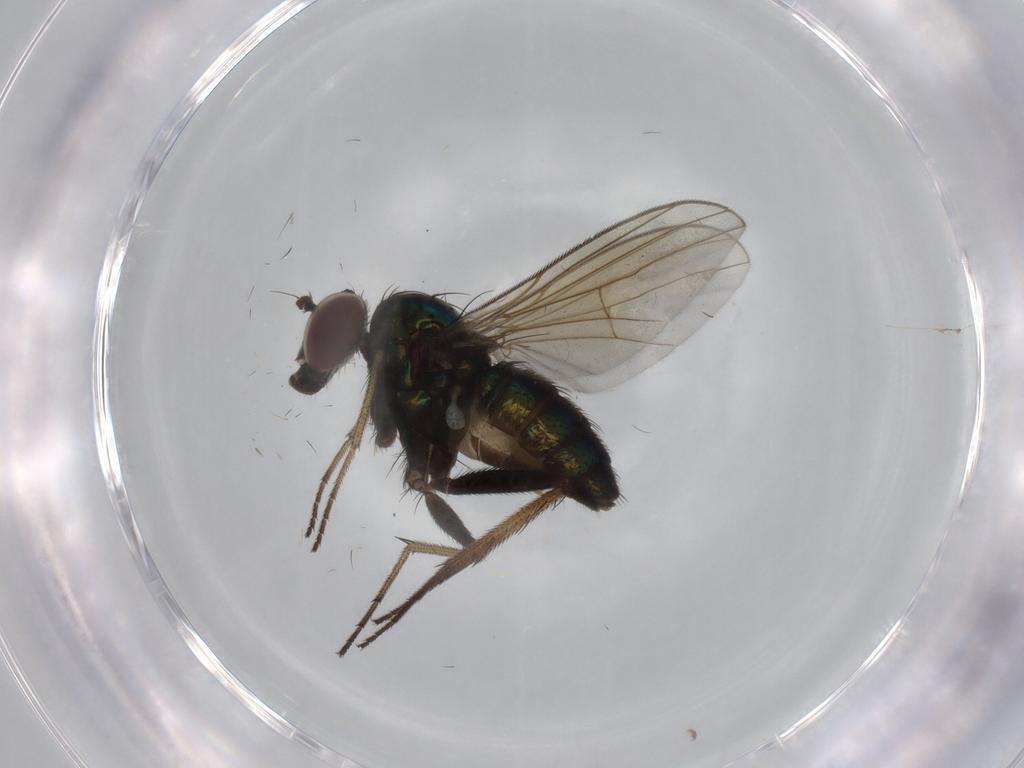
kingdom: Animalia
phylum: Arthropoda
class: Insecta
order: Diptera
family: Dolichopodidae
